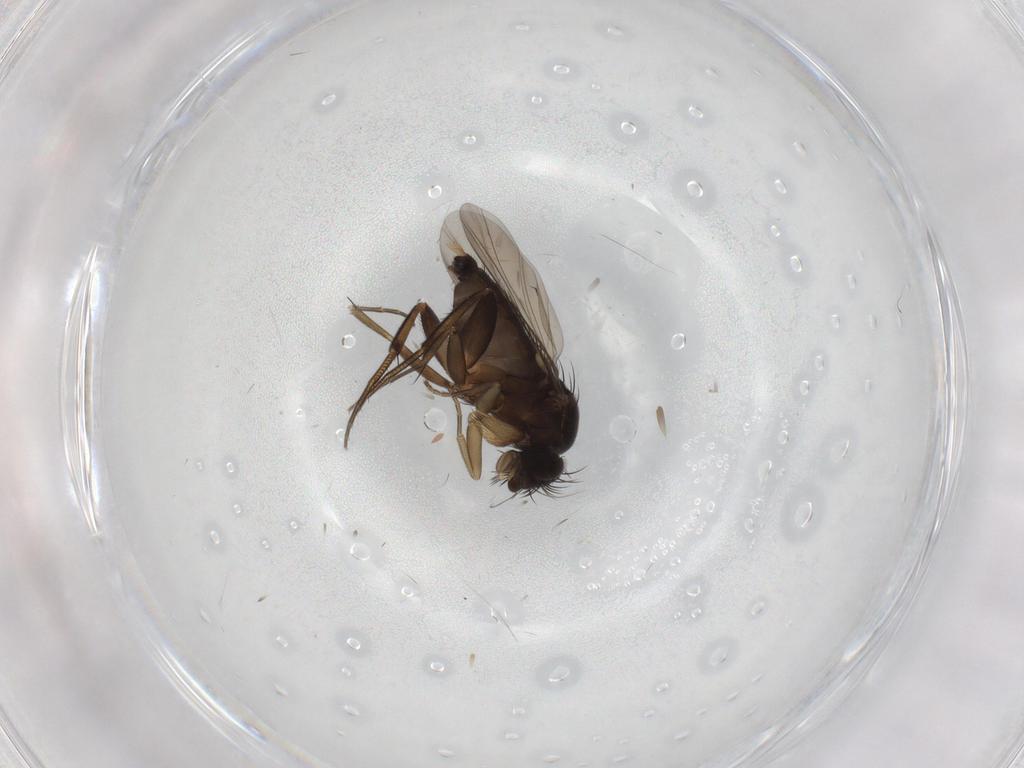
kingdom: Animalia
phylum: Arthropoda
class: Insecta
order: Diptera
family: Phoridae
